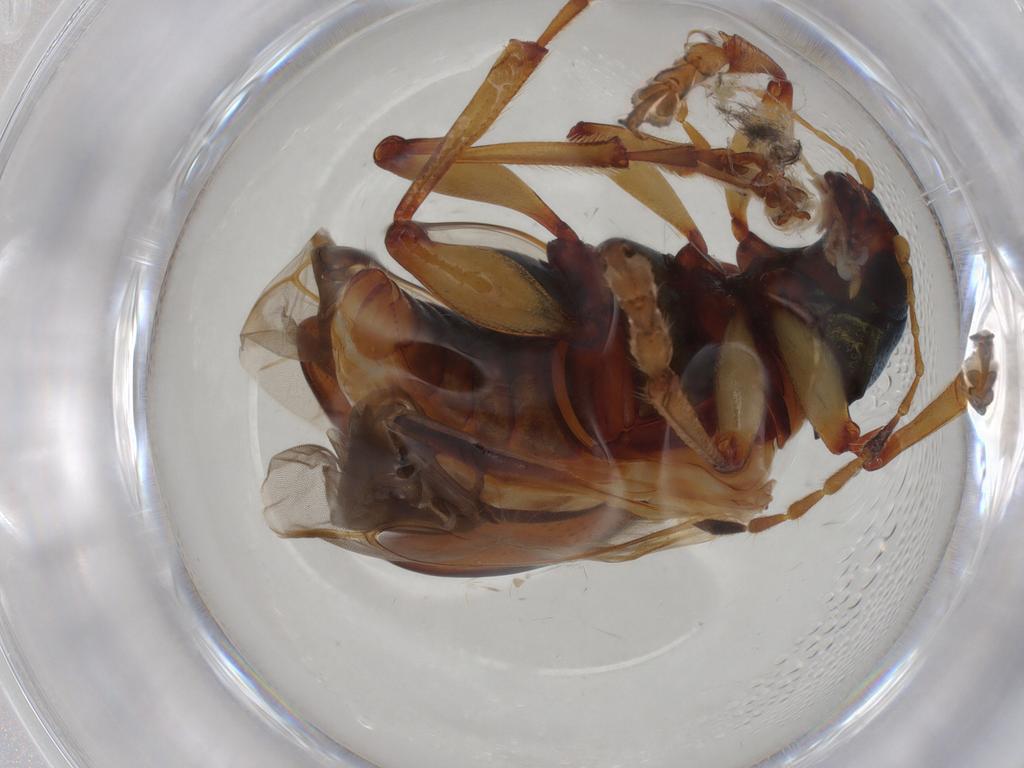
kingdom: Animalia
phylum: Arthropoda
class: Insecta
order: Coleoptera
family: Chrysomelidae
